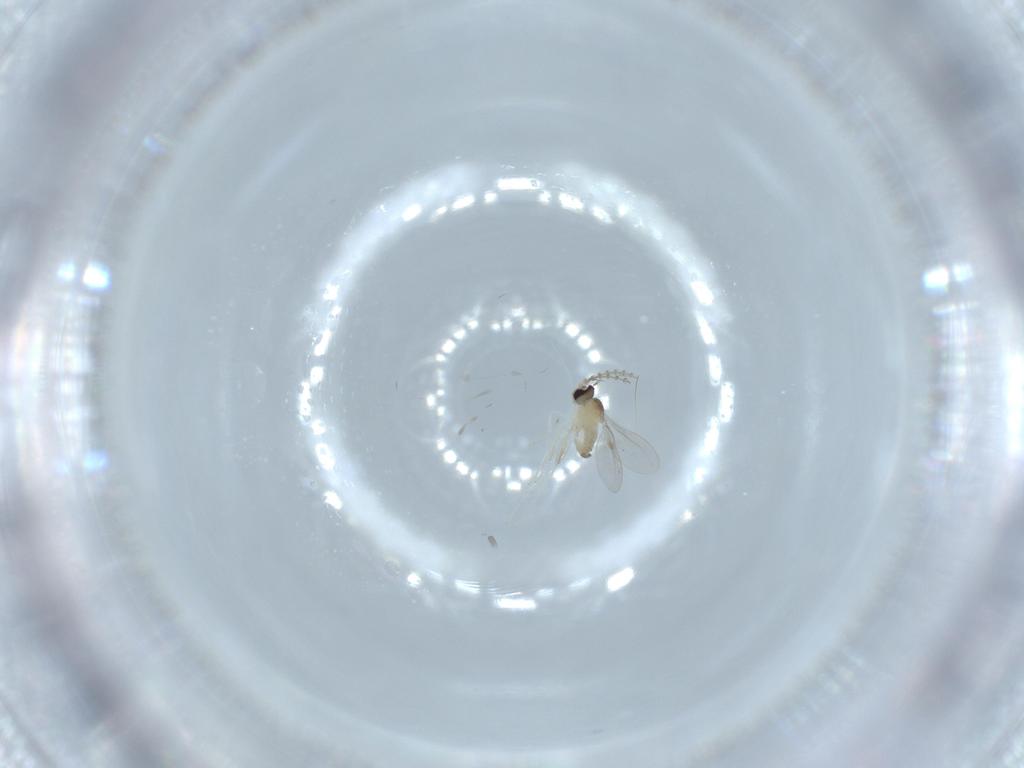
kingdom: Animalia
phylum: Arthropoda
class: Insecta
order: Diptera
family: Cecidomyiidae
